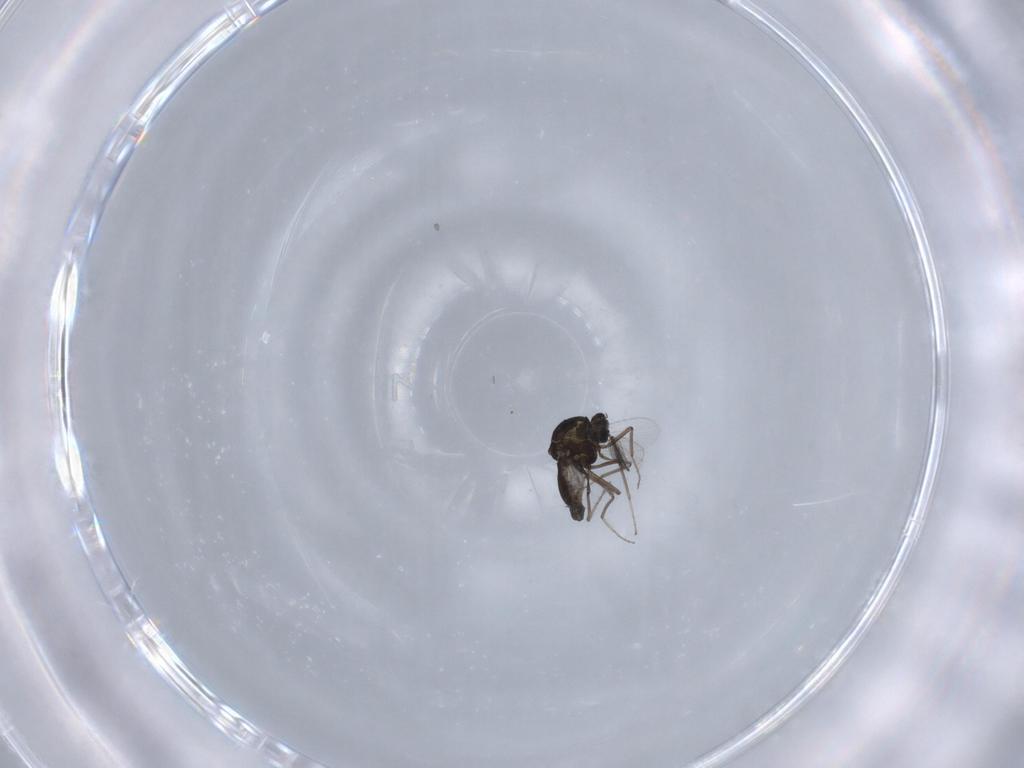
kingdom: Animalia
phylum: Arthropoda
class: Insecta
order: Diptera
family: Ceratopogonidae
